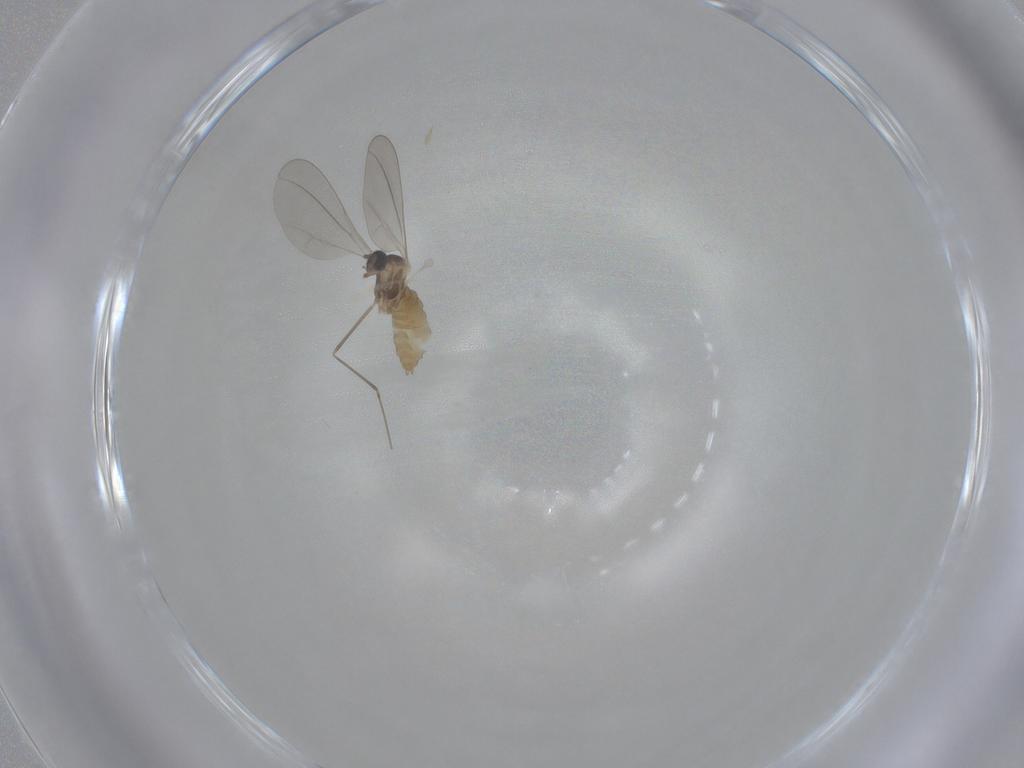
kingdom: Animalia
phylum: Arthropoda
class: Insecta
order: Diptera
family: Cecidomyiidae
